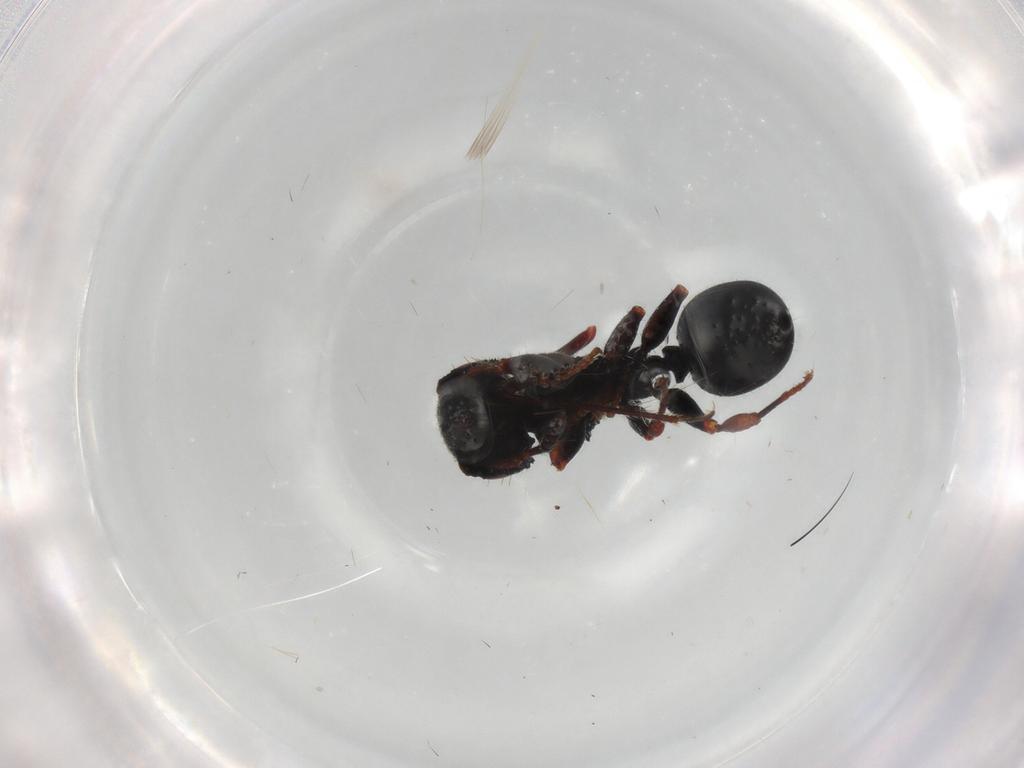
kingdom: Animalia
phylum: Arthropoda
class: Insecta
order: Hymenoptera
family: Formicidae
